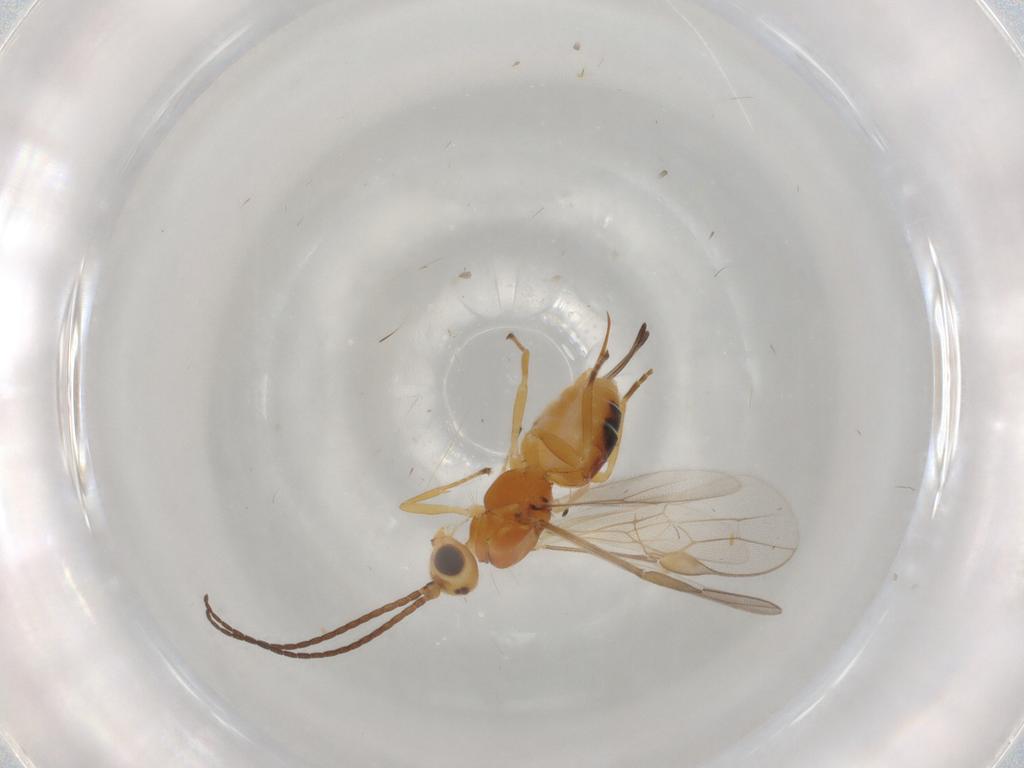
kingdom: Animalia
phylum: Arthropoda
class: Insecta
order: Hymenoptera
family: Braconidae
